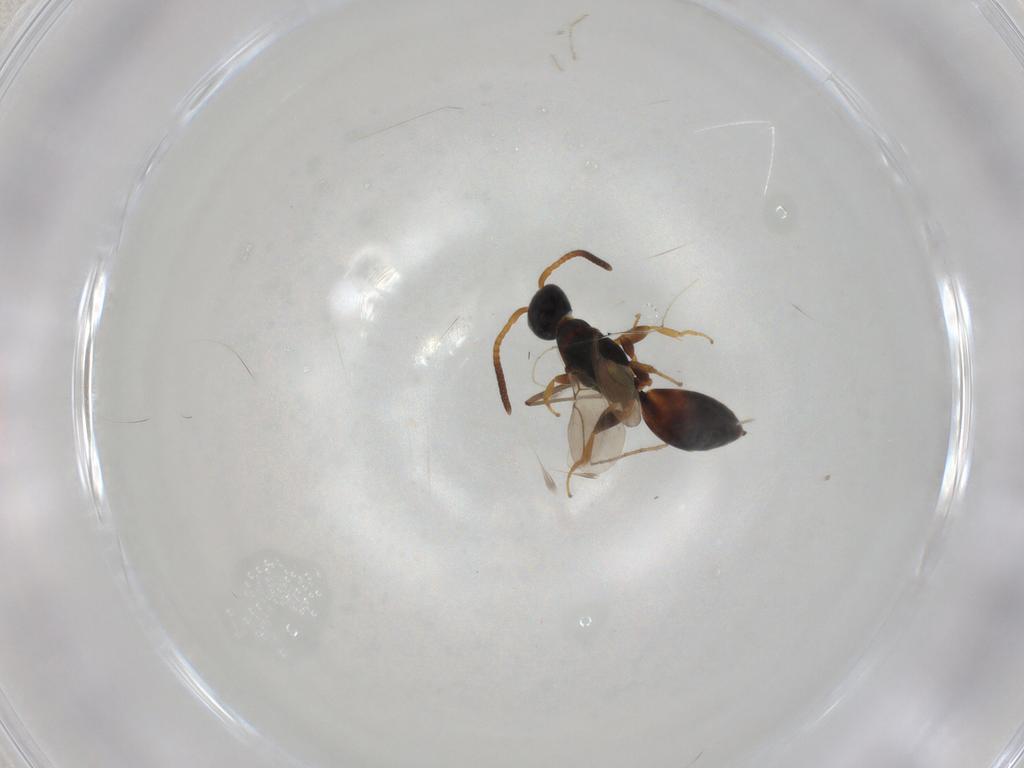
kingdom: Animalia
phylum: Arthropoda
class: Insecta
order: Hymenoptera
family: Bethylidae
